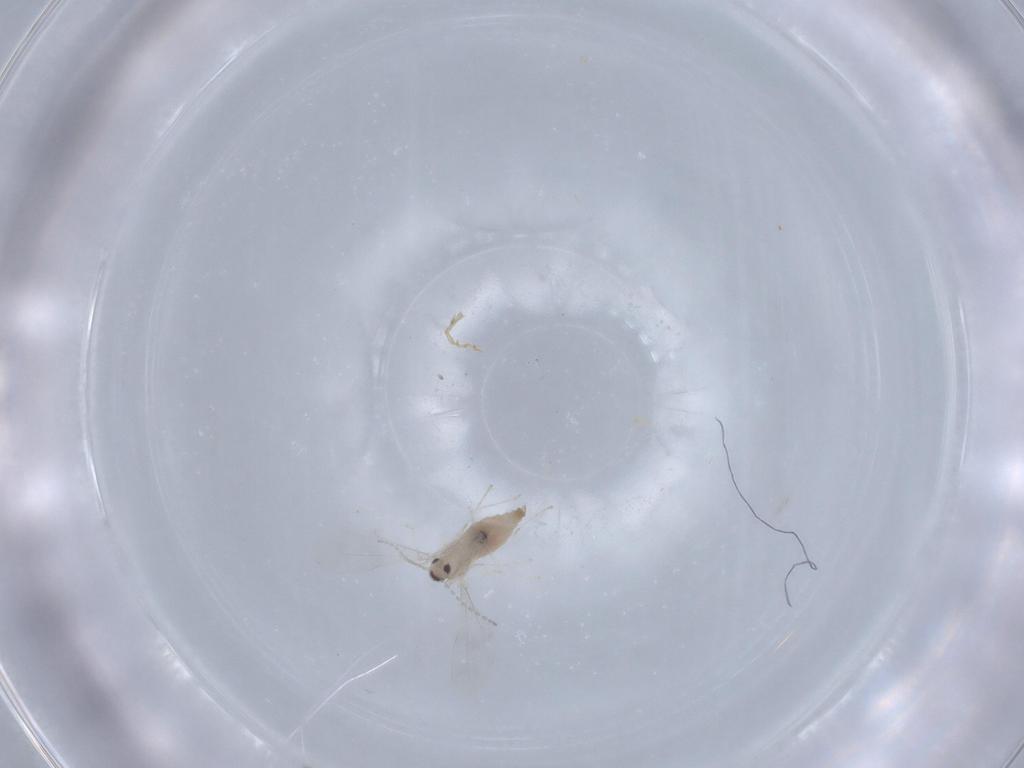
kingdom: Animalia
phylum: Arthropoda
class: Insecta
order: Diptera
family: Cecidomyiidae
